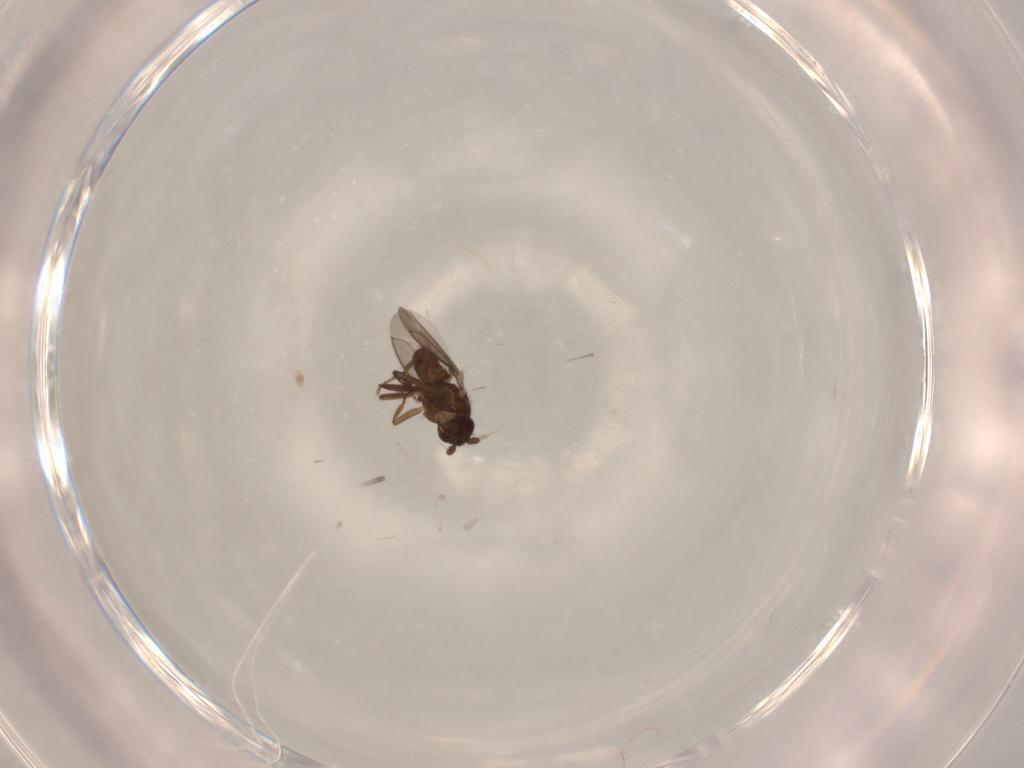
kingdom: Animalia
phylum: Arthropoda
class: Insecta
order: Diptera
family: Sphaeroceridae
